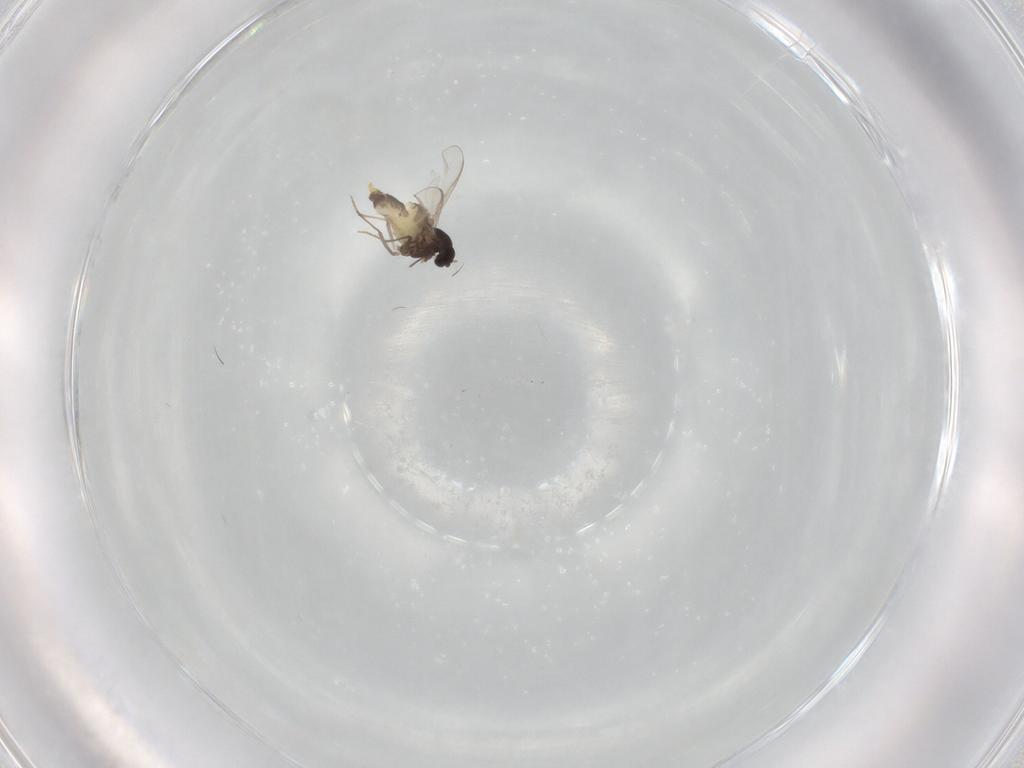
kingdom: Animalia
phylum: Arthropoda
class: Insecta
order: Diptera
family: Chironomidae
